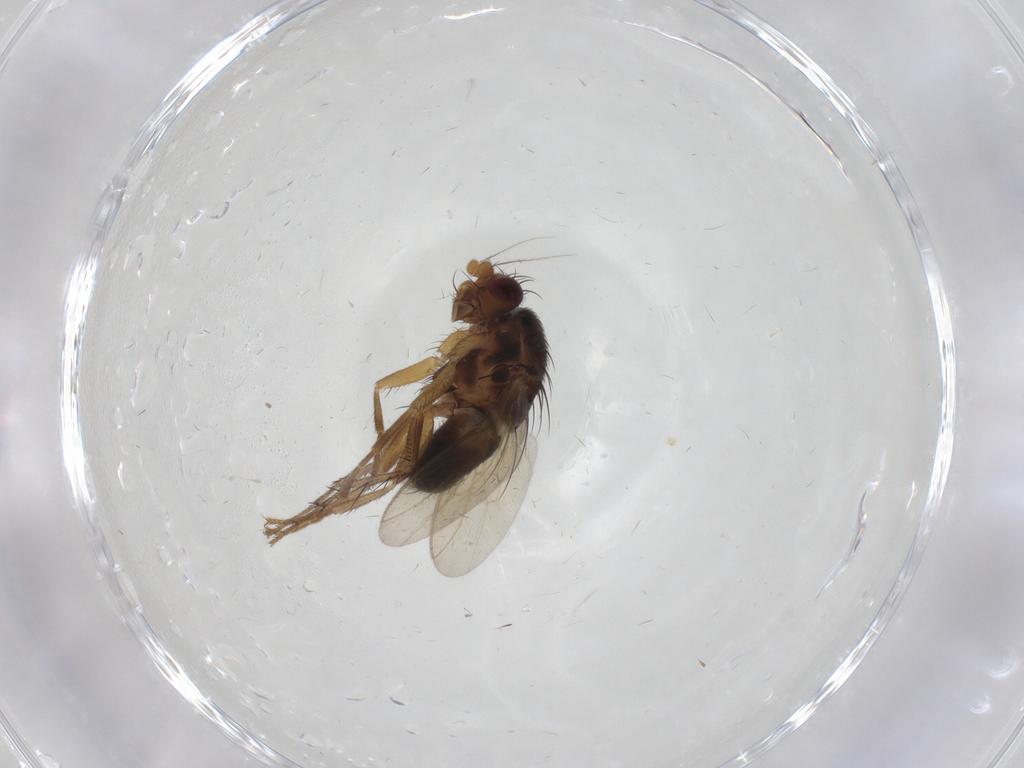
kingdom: Animalia
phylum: Arthropoda
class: Insecta
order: Diptera
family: Sphaeroceridae
